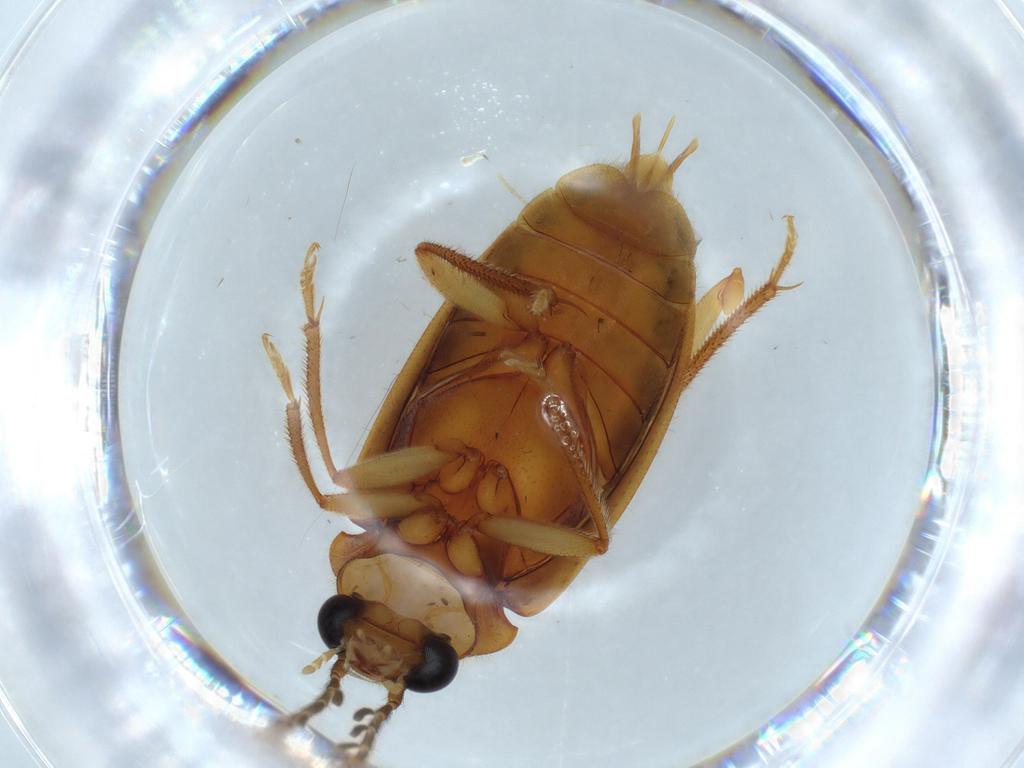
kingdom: Animalia
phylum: Arthropoda
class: Insecta
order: Coleoptera
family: Ptilodactylidae
